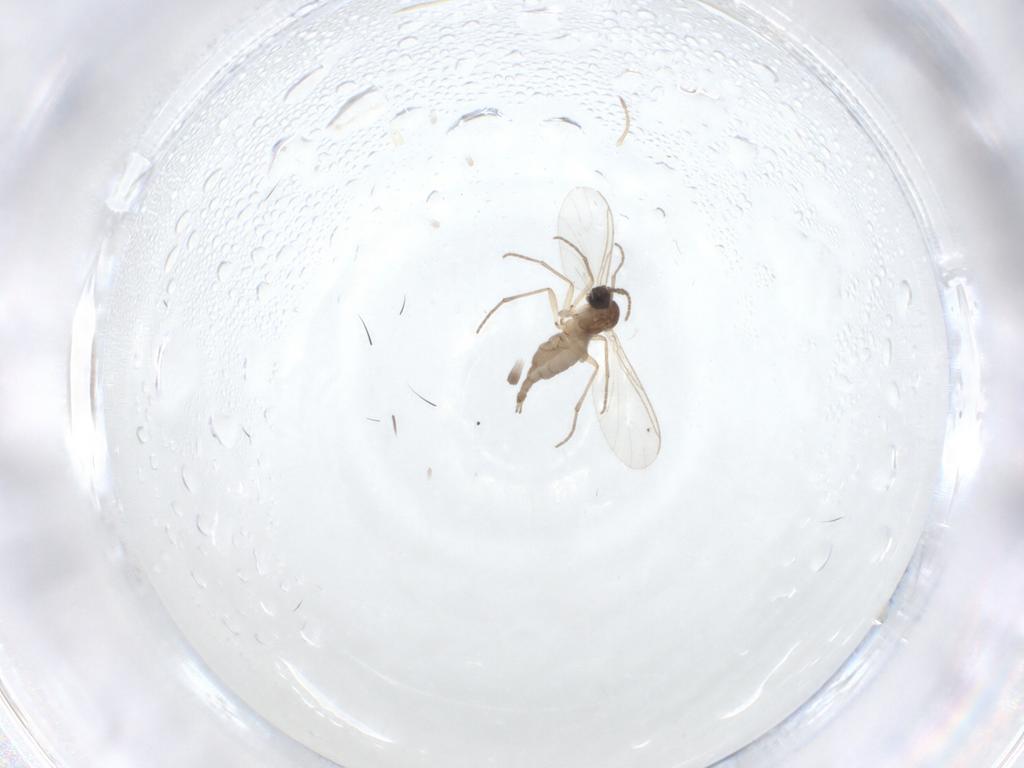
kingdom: Animalia
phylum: Arthropoda
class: Insecta
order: Diptera
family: Sciaridae
